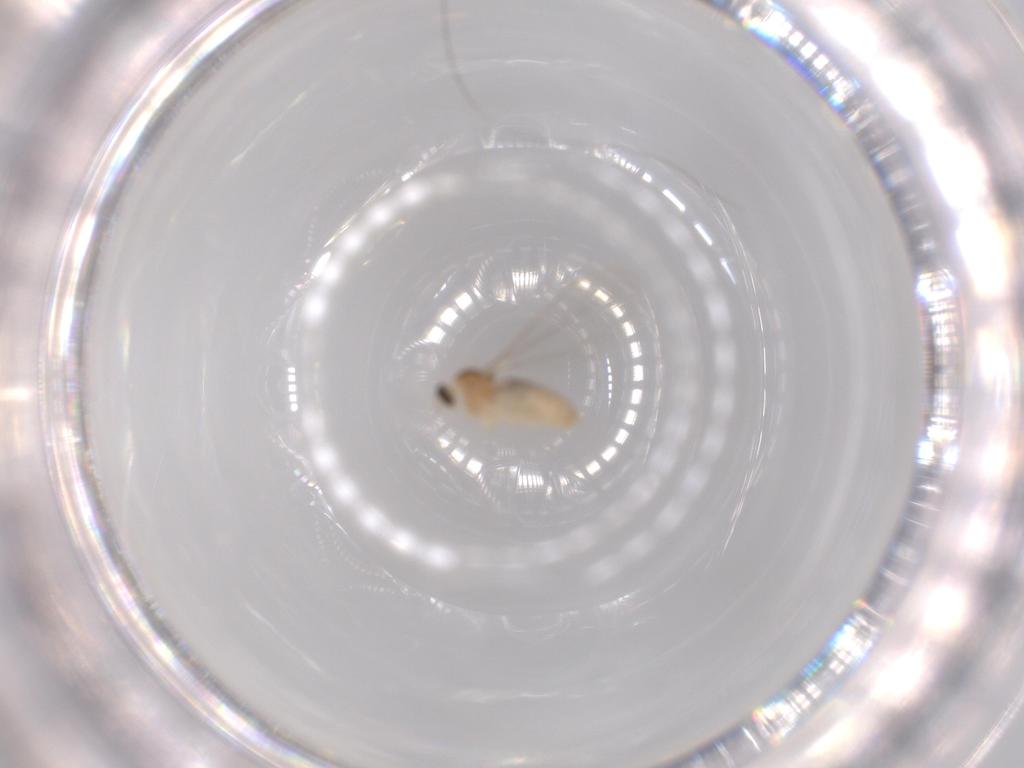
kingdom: Animalia
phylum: Arthropoda
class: Insecta
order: Diptera
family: Cecidomyiidae
